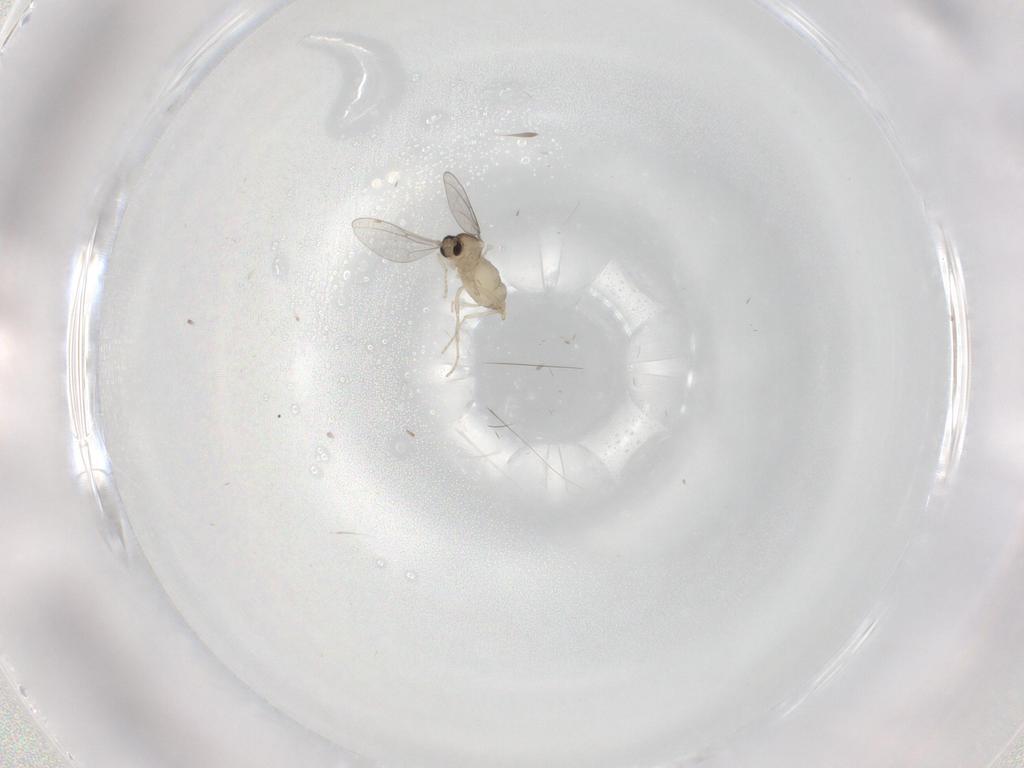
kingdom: Animalia
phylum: Arthropoda
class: Insecta
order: Diptera
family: Cecidomyiidae
